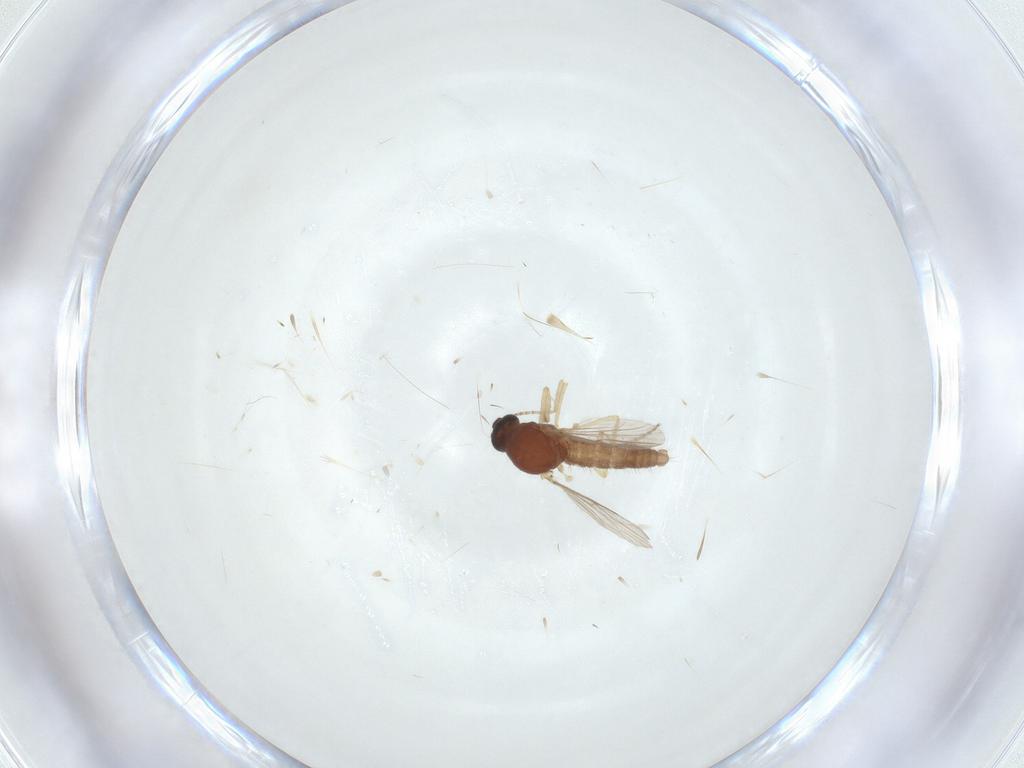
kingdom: Animalia
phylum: Arthropoda
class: Insecta
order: Diptera
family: Ceratopogonidae
